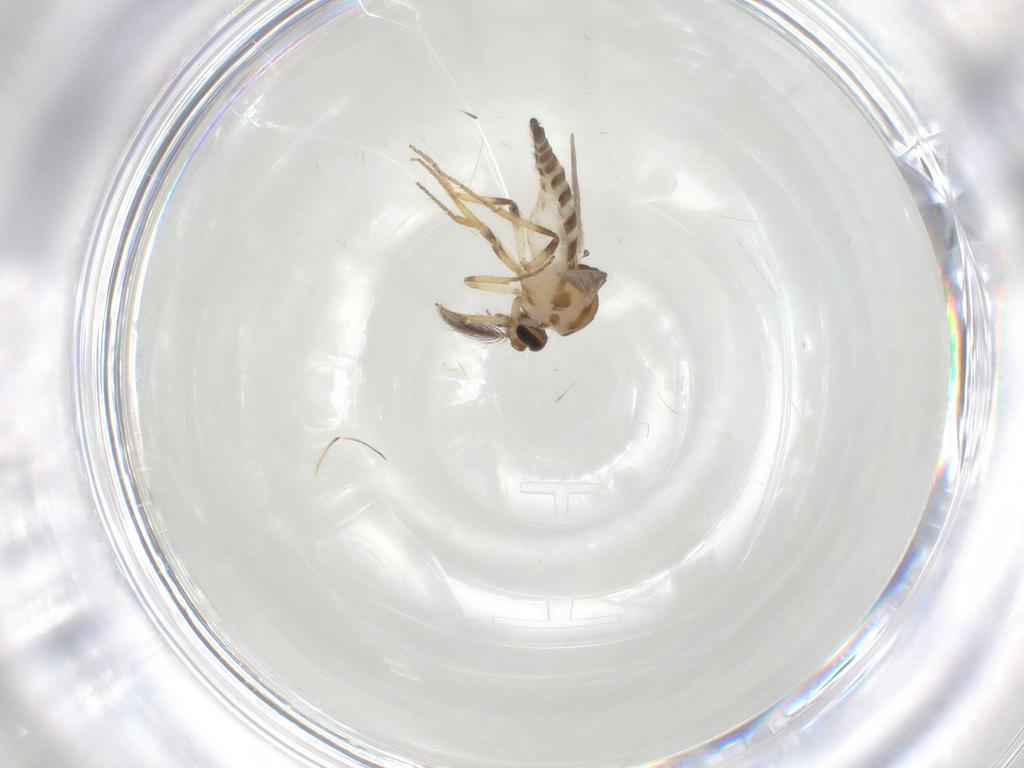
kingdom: Animalia
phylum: Arthropoda
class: Insecta
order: Diptera
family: Ceratopogonidae
